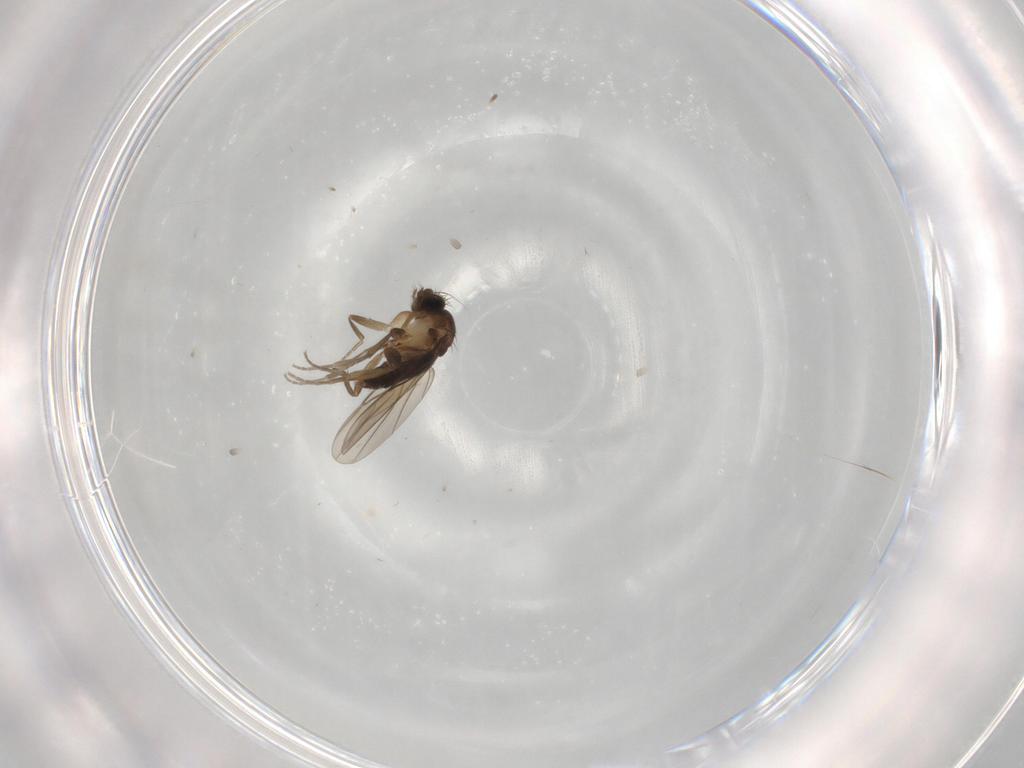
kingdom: Animalia
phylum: Arthropoda
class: Insecta
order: Diptera
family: Phoridae
